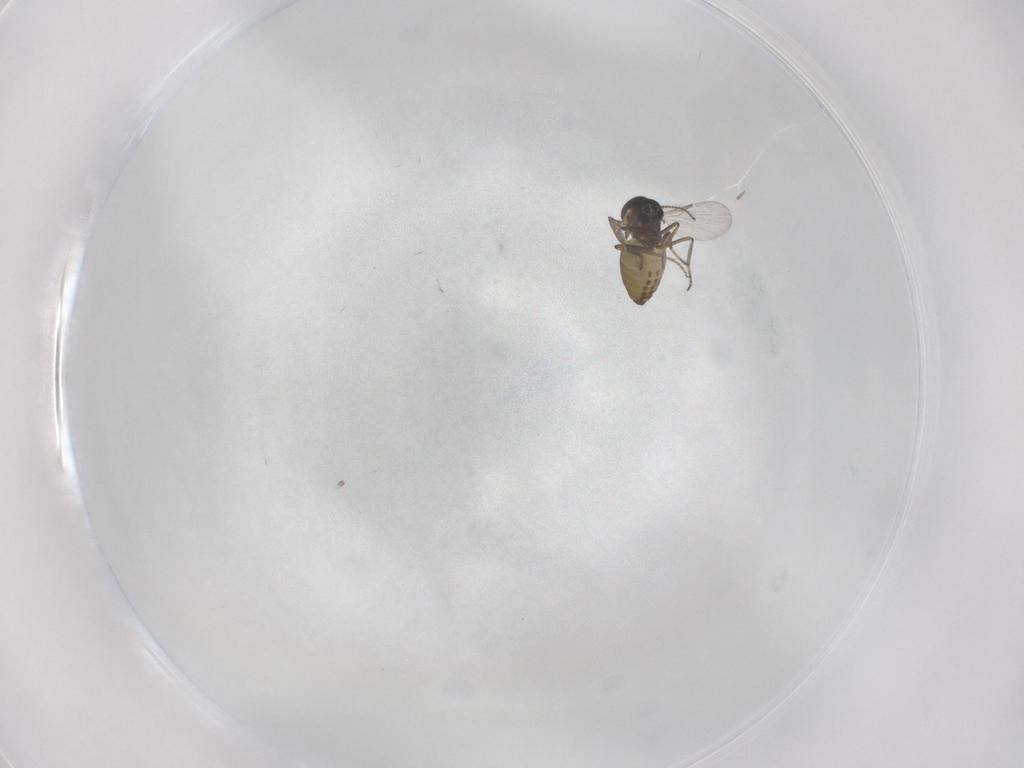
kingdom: Animalia
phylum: Arthropoda
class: Insecta
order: Diptera
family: Ceratopogonidae
